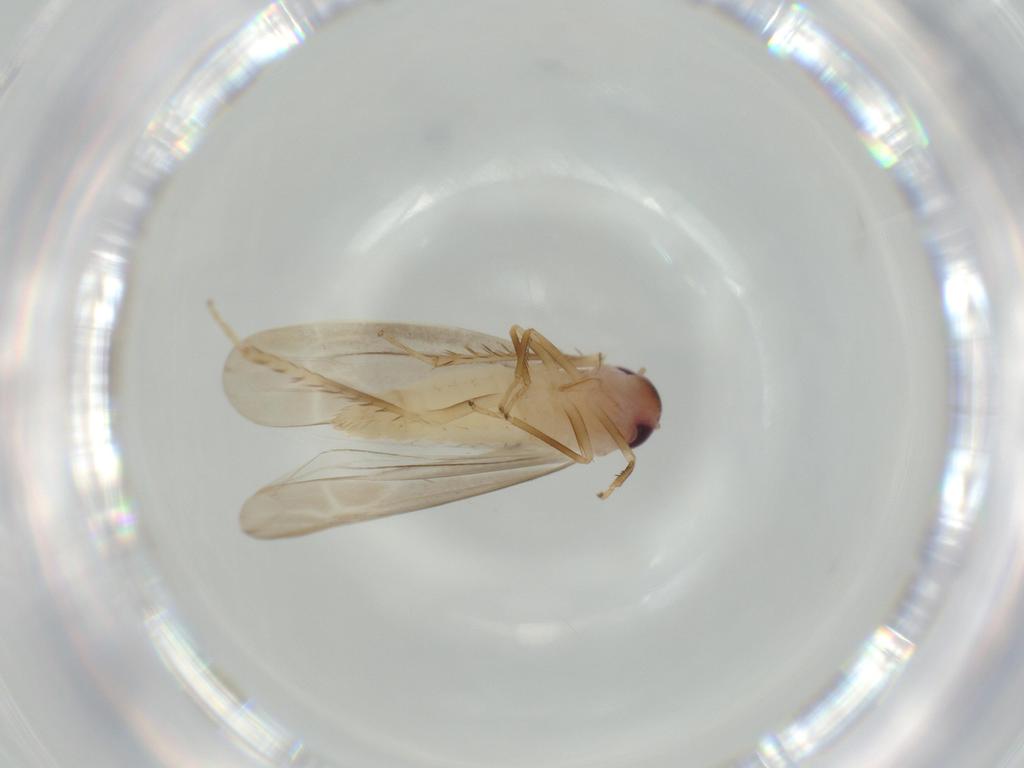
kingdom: Animalia
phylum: Arthropoda
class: Insecta
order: Hemiptera
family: Cicadellidae
